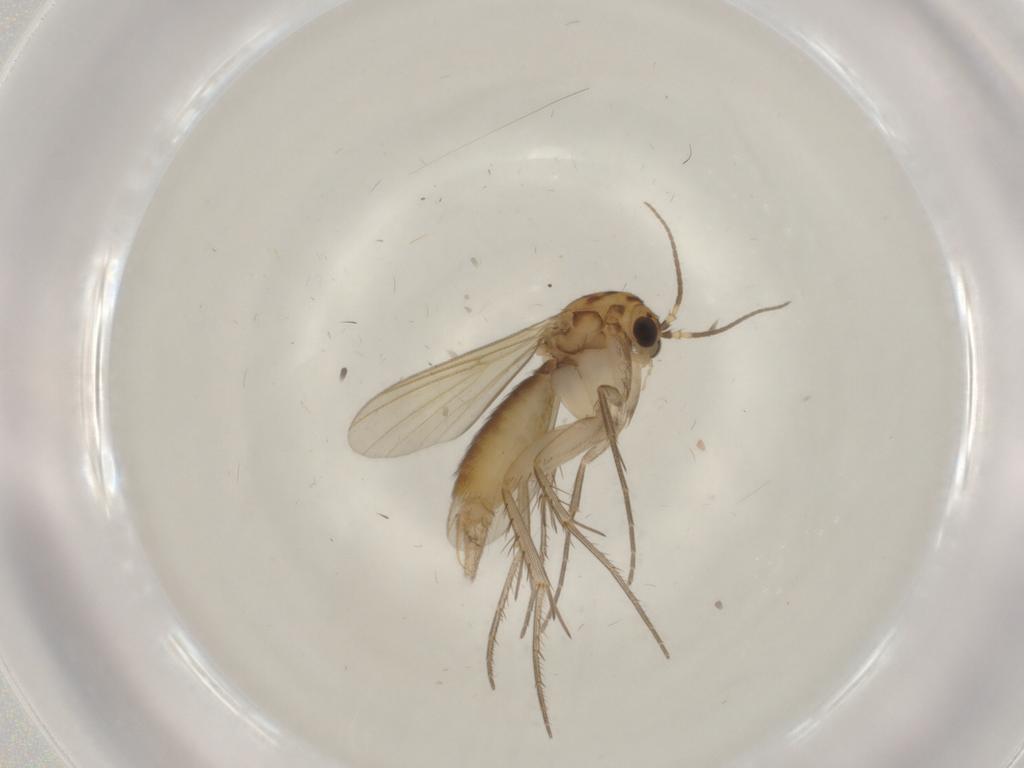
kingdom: Animalia
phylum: Arthropoda
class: Insecta
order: Diptera
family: Mycetophilidae
